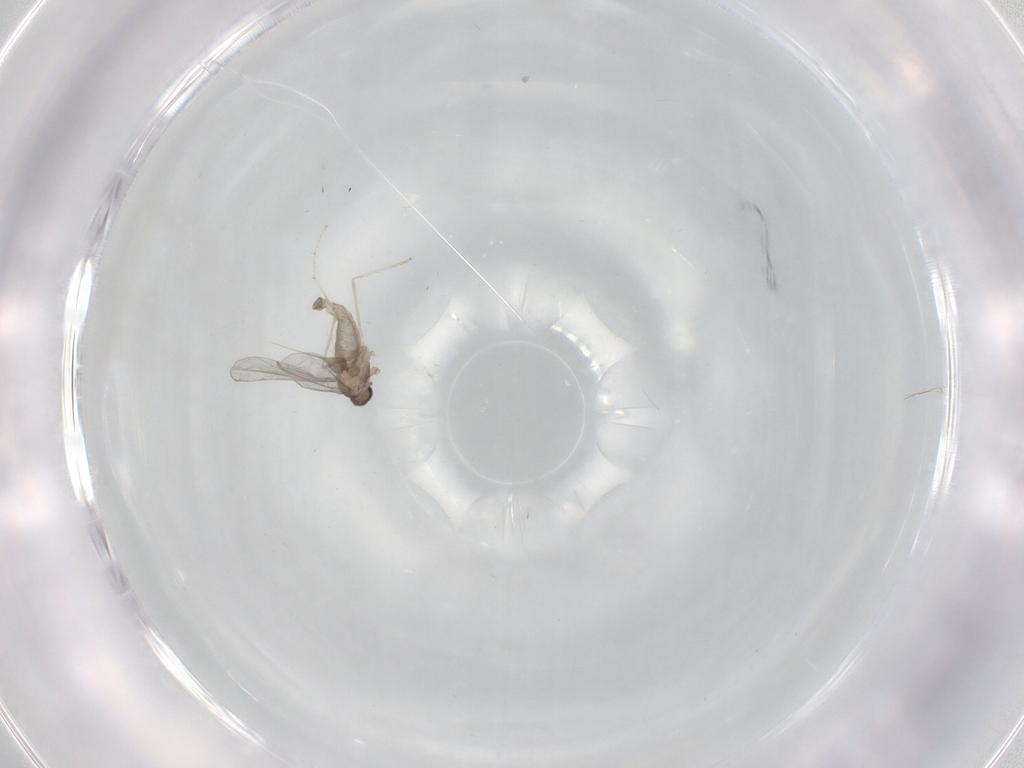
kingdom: Animalia
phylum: Arthropoda
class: Insecta
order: Diptera
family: Cecidomyiidae
